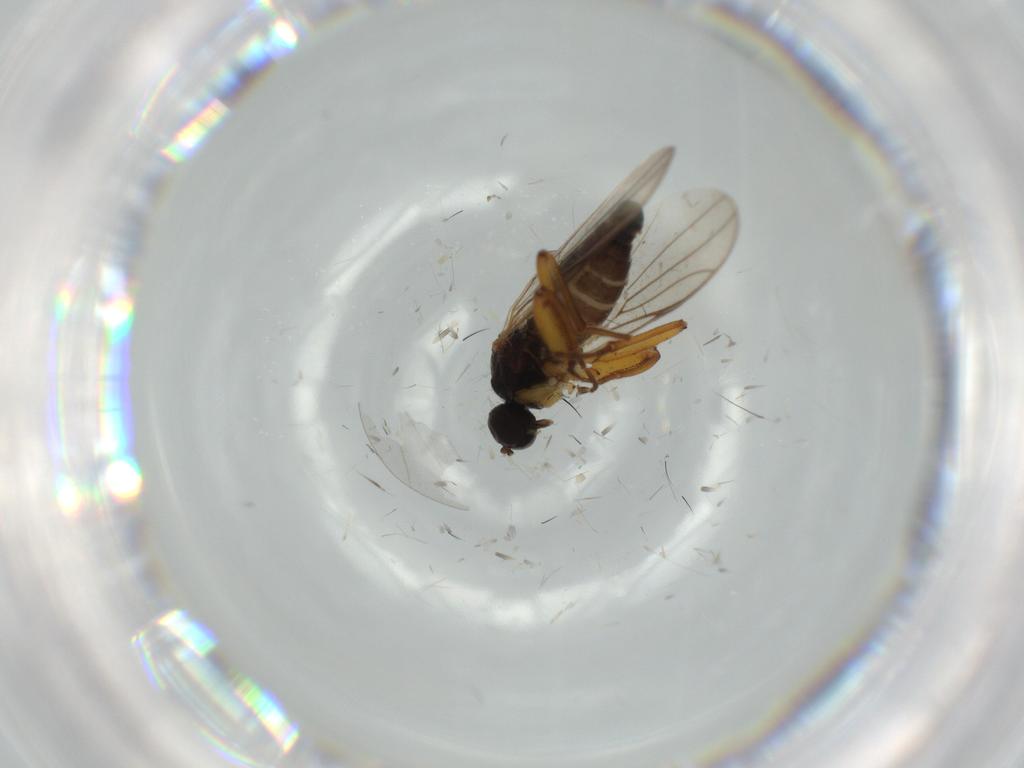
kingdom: Animalia
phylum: Arthropoda
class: Insecta
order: Diptera
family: Hybotidae
